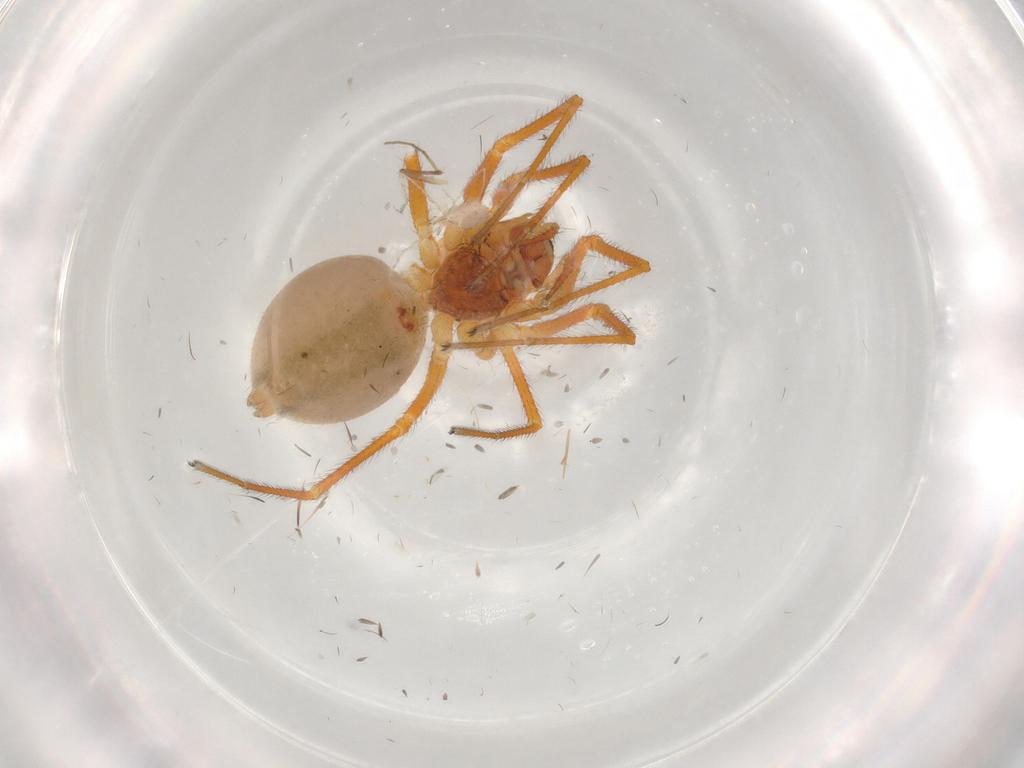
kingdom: Animalia
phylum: Arthropoda
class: Arachnida
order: Araneae
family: Linyphiidae
